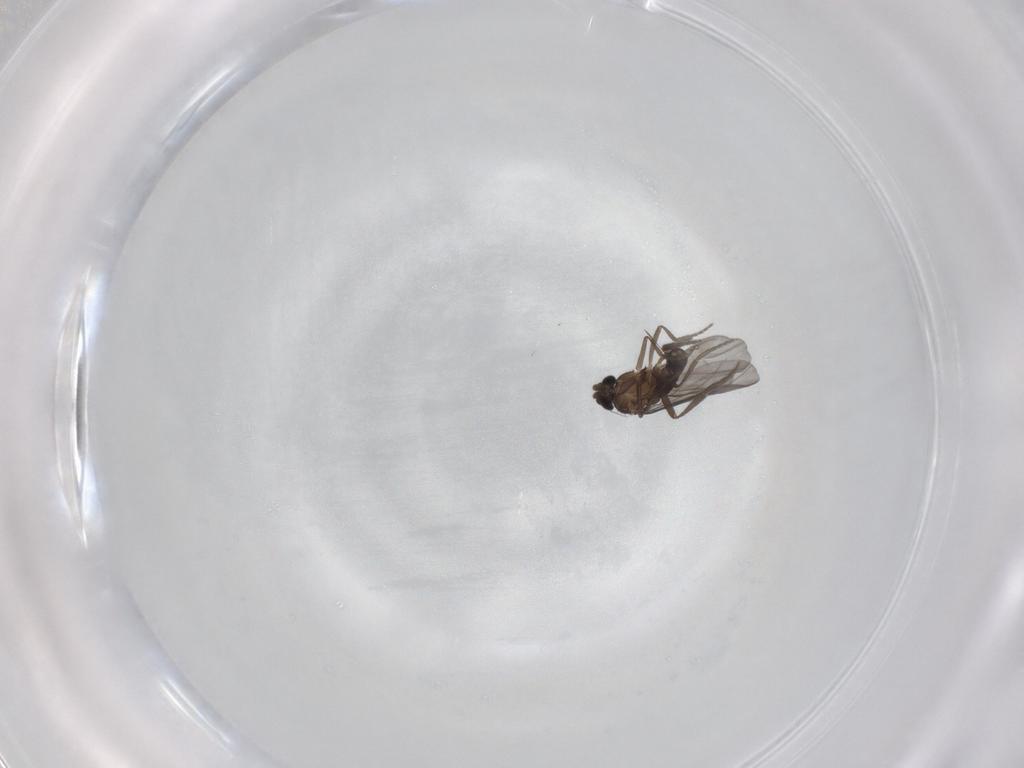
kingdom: Animalia
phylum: Arthropoda
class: Insecta
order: Diptera
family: Phoridae
